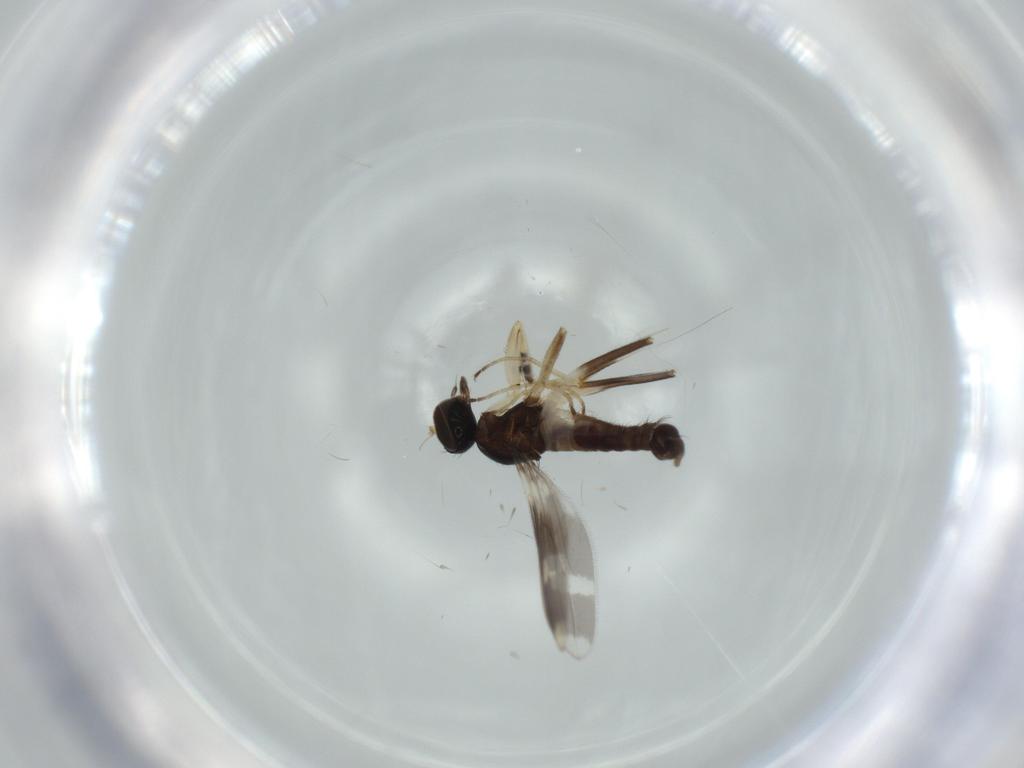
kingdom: Animalia
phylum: Arthropoda
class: Insecta
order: Diptera
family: Hybotidae
